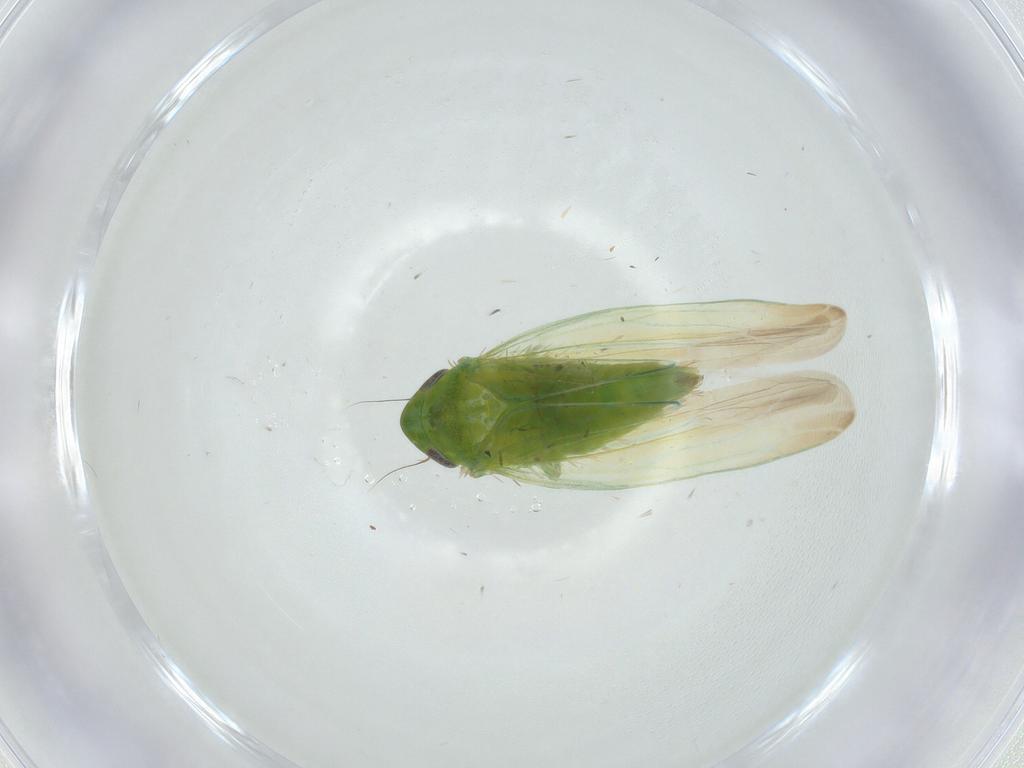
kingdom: Animalia
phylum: Arthropoda
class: Insecta
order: Hemiptera
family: Cicadellidae
